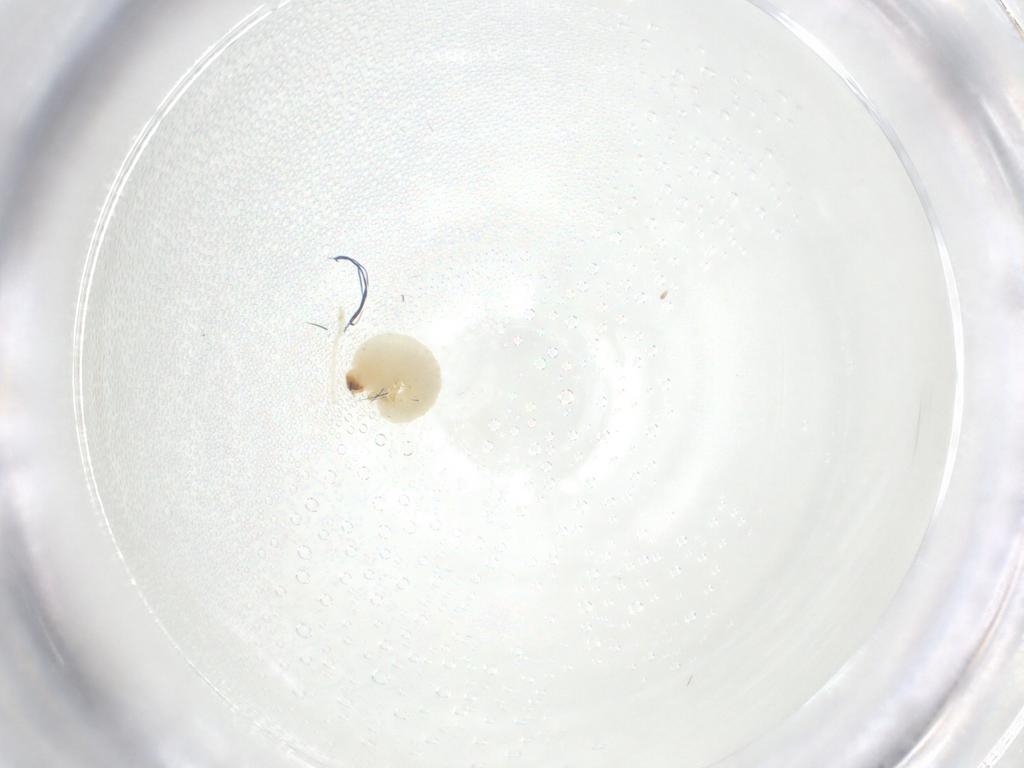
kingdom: Animalia
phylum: Arthropoda
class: Insecta
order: Coleoptera
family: Bostrichidae
